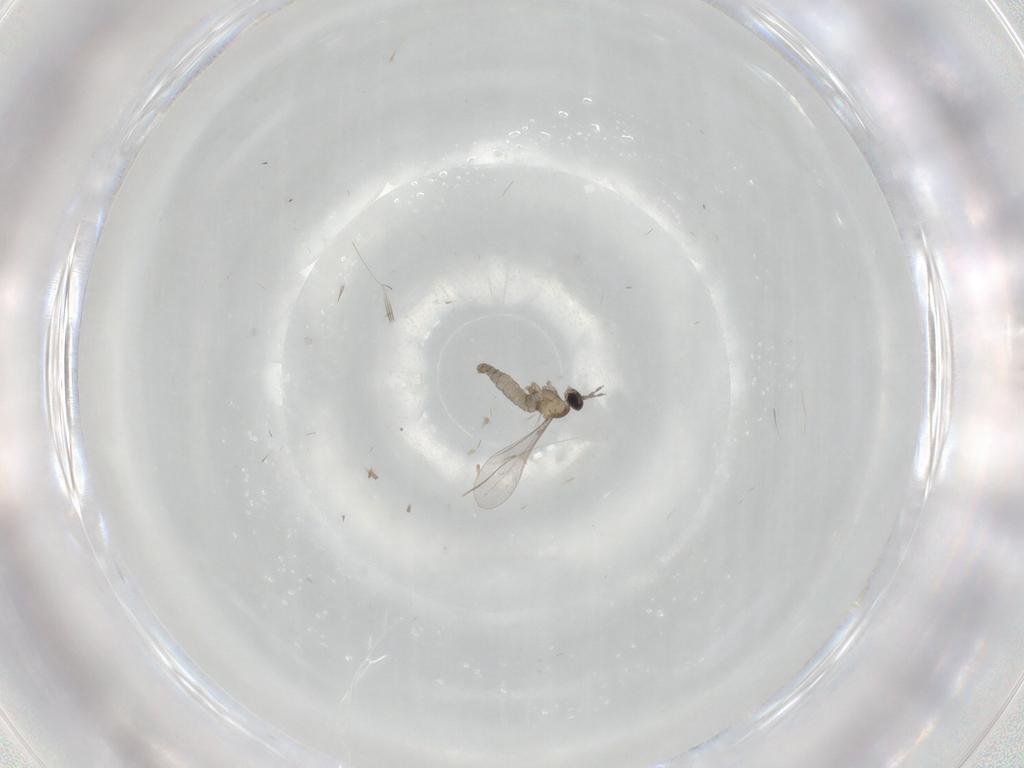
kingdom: Animalia
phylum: Arthropoda
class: Insecta
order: Diptera
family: Cecidomyiidae
